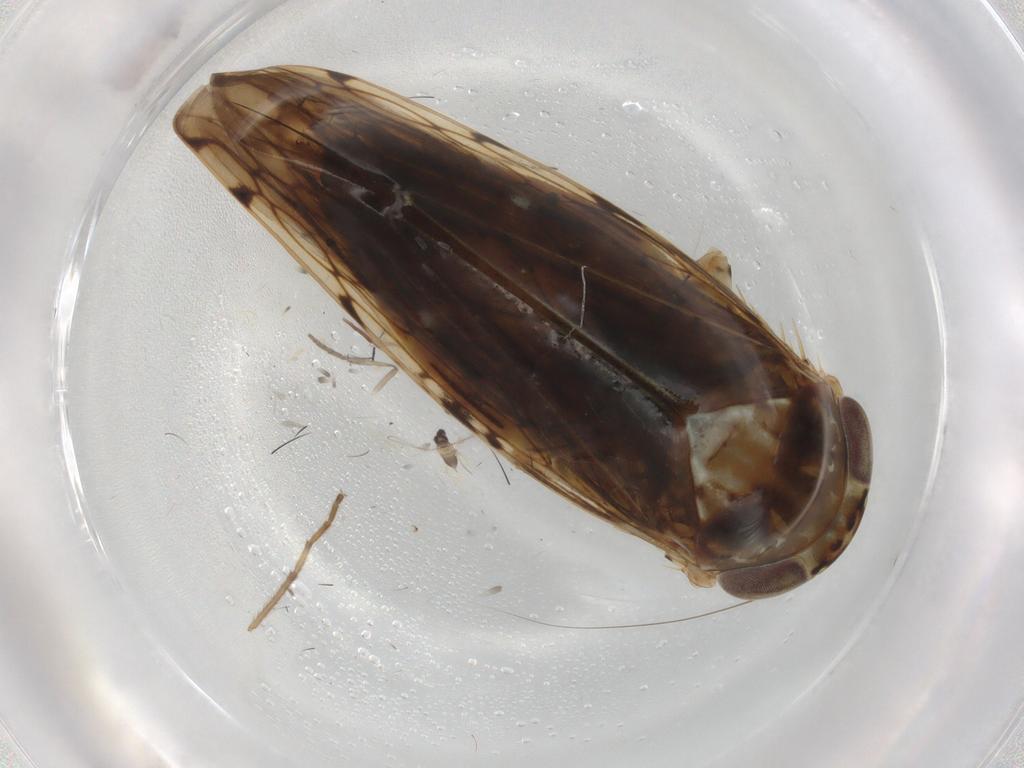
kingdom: Animalia
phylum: Arthropoda
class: Insecta
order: Hemiptera
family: Cicadellidae
